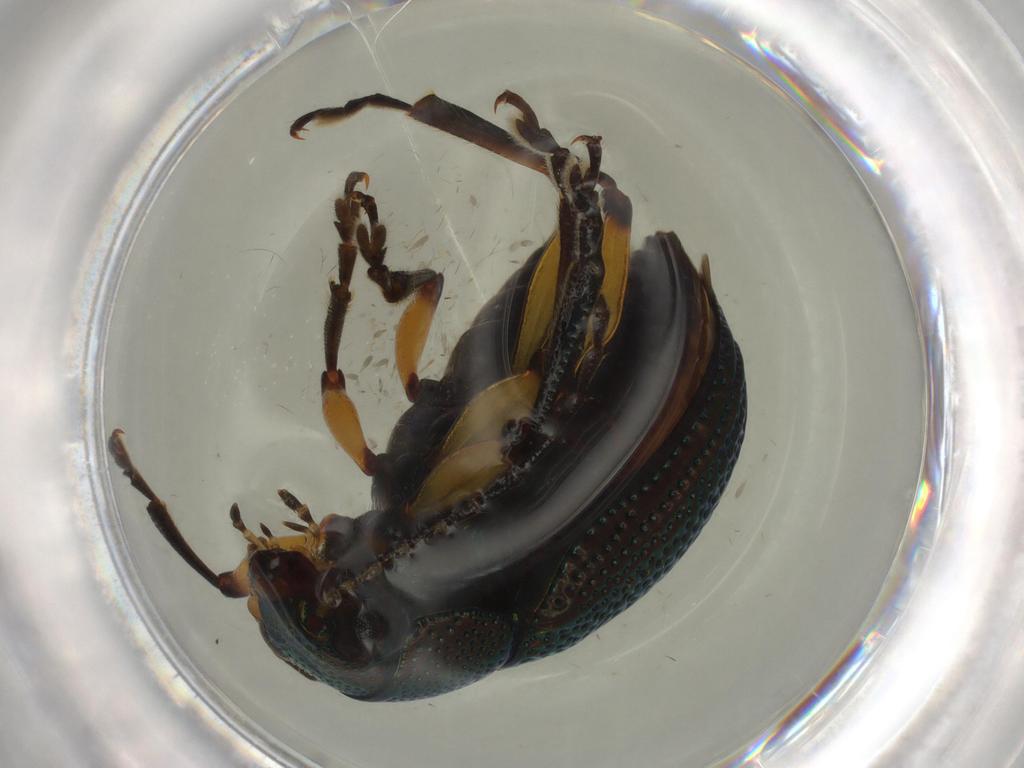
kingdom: Animalia
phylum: Arthropoda
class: Insecta
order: Coleoptera
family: Chrysomelidae
